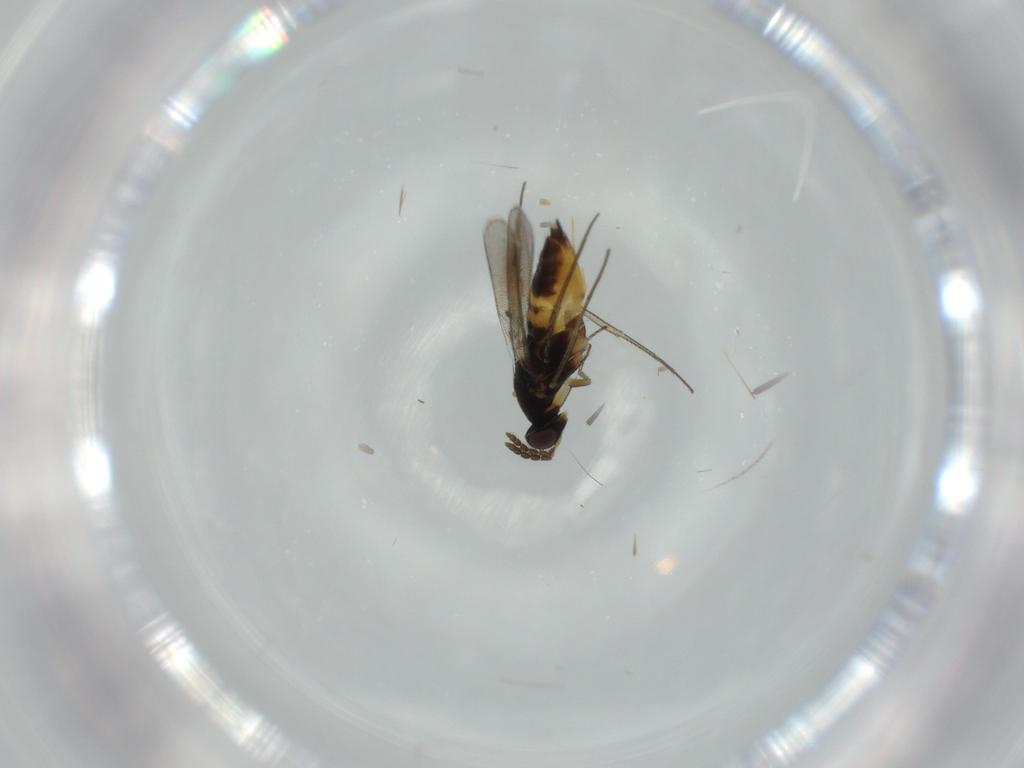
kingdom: Animalia
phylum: Arthropoda
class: Insecta
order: Hymenoptera
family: Eulophidae
